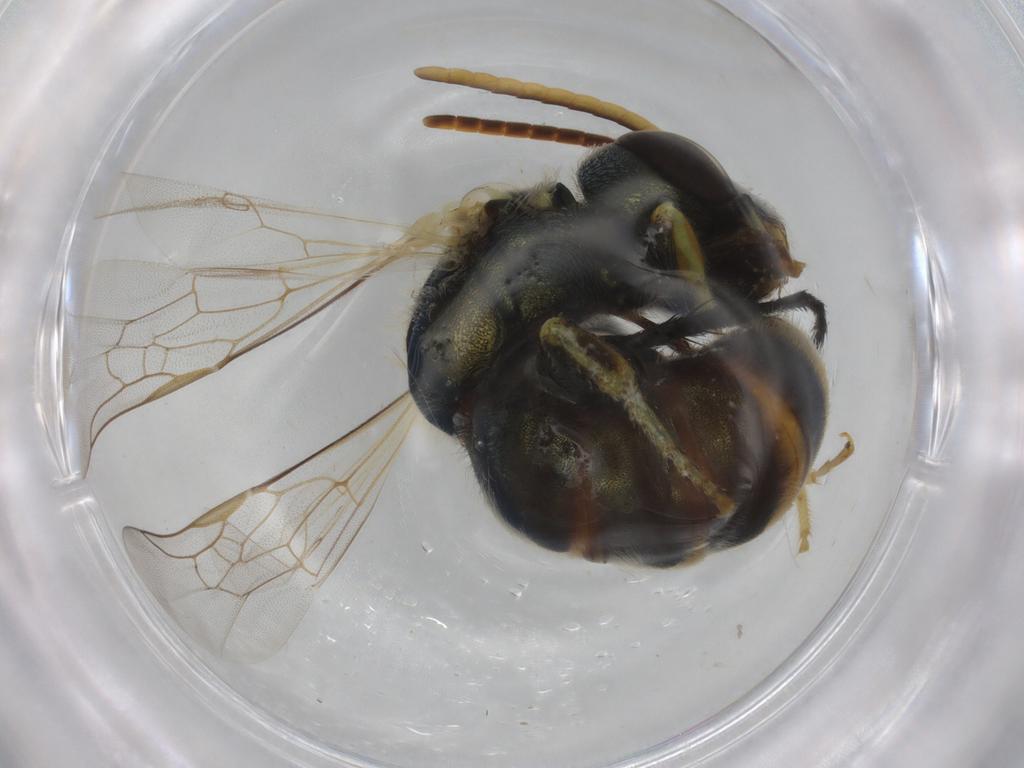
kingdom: Animalia
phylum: Arthropoda
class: Insecta
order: Hymenoptera
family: Halictidae
